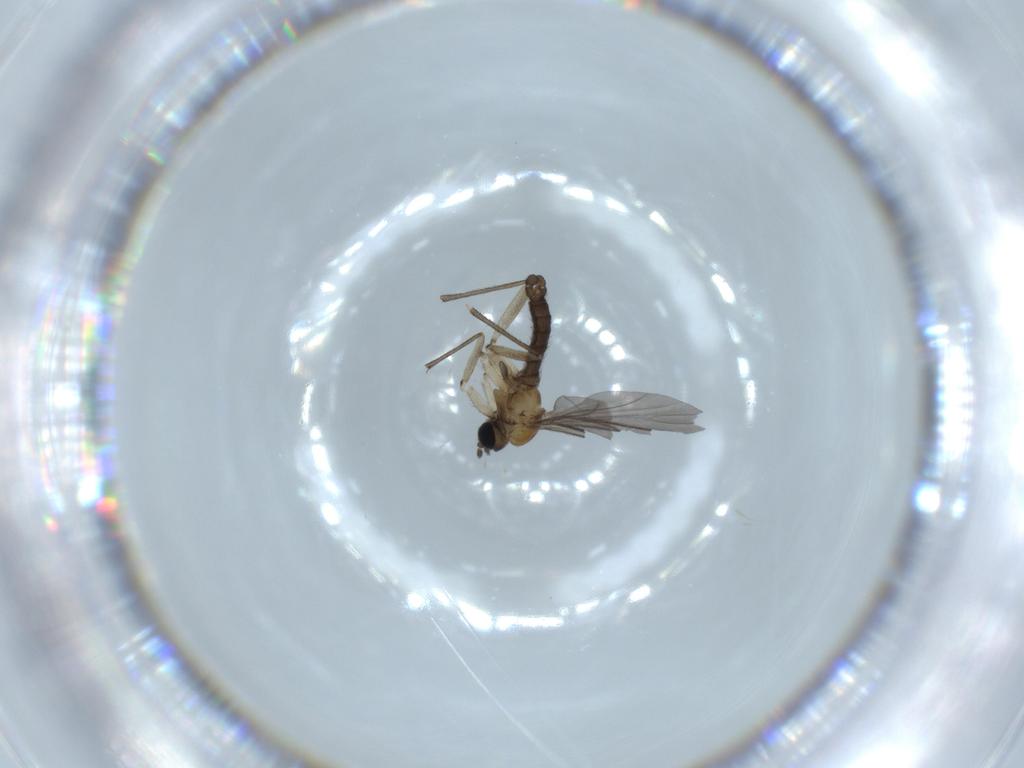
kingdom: Animalia
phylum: Arthropoda
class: Insecta
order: Diptera
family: Sciaridae
